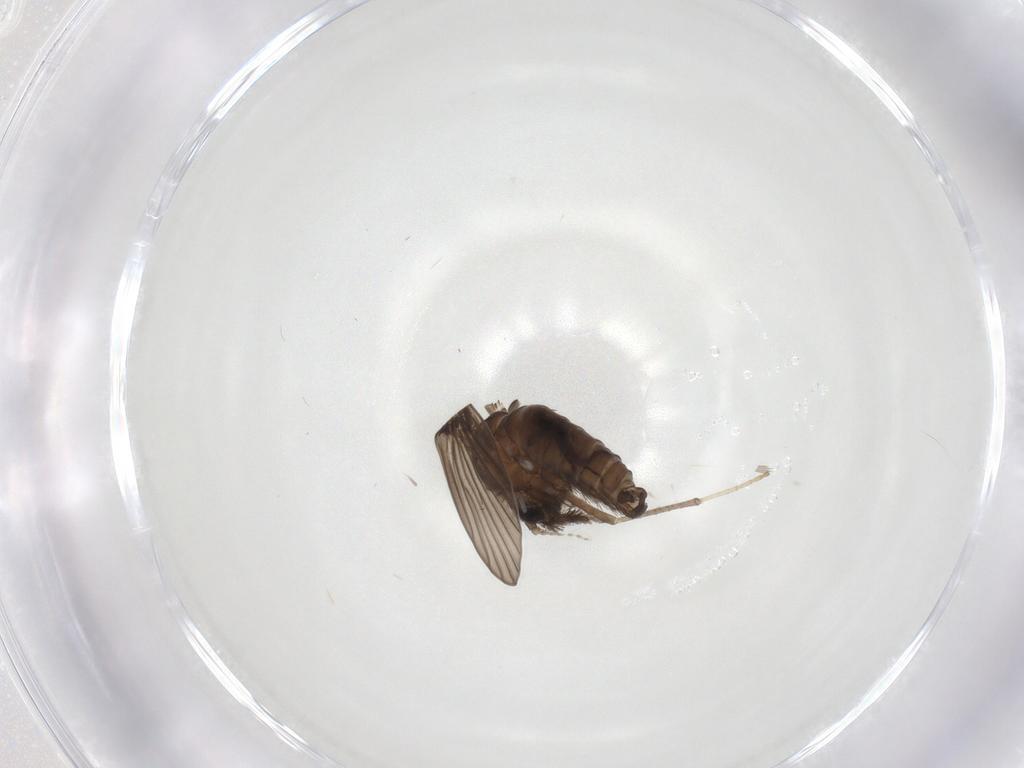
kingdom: Animalia
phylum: Arthropoda
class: Insecta
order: Diptera
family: Psychodidae
